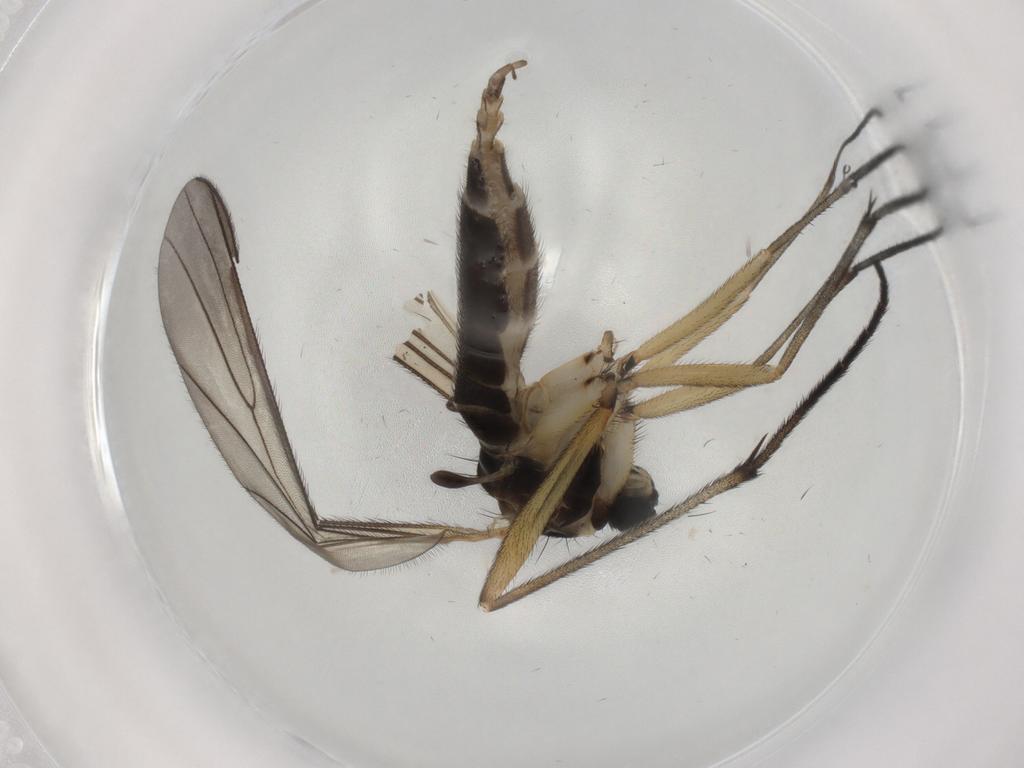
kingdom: Animalia
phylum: Arthropoda
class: Insecta
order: Diptera
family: Sciaridae
